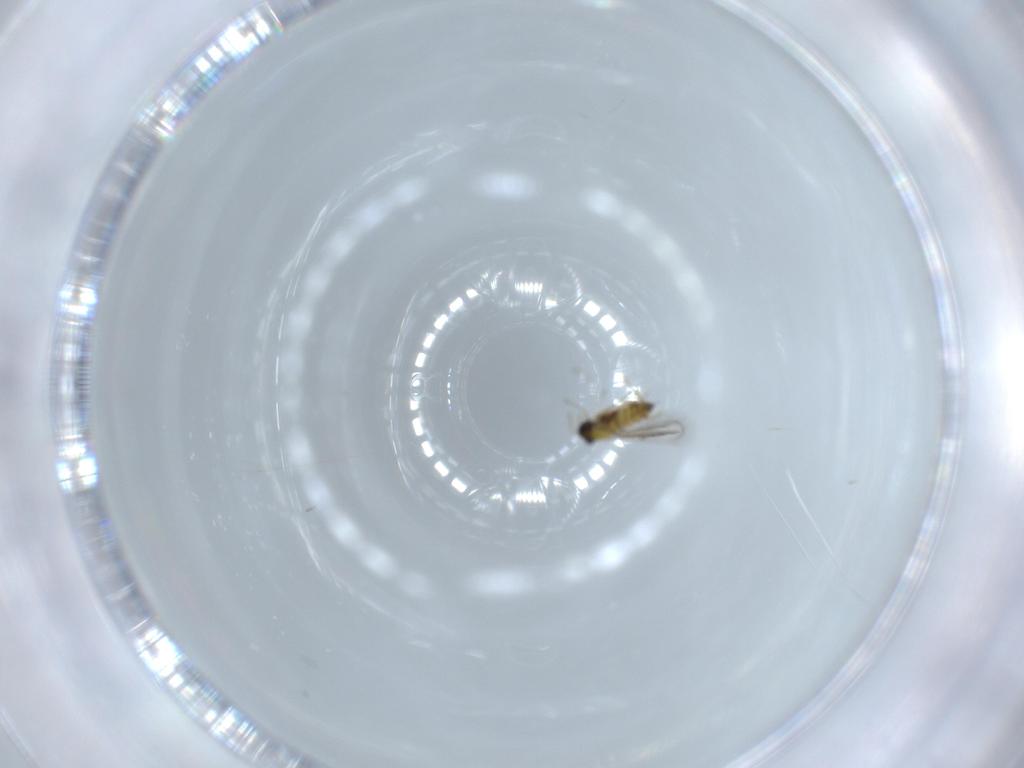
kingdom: Animalia
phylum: Arthropoda
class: Insecta
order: Hymenoptera
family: Trichogrammatidae
